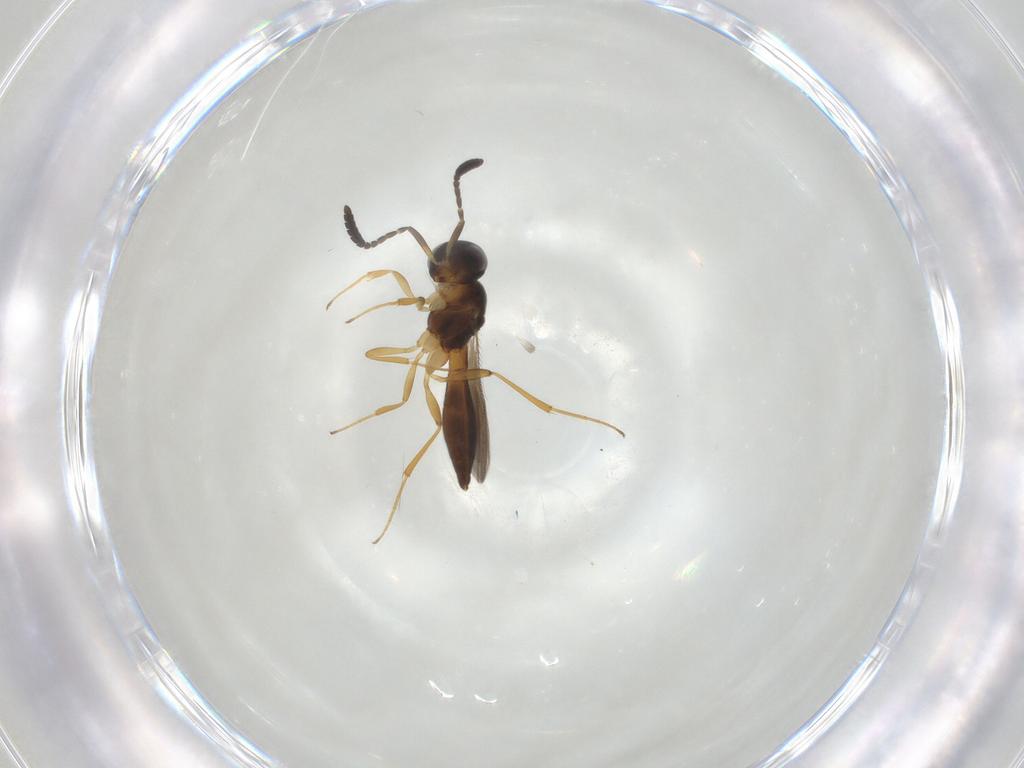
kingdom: Animalia
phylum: Arthropoda
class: Insecta
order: Hymenoptera
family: Scelionidae
